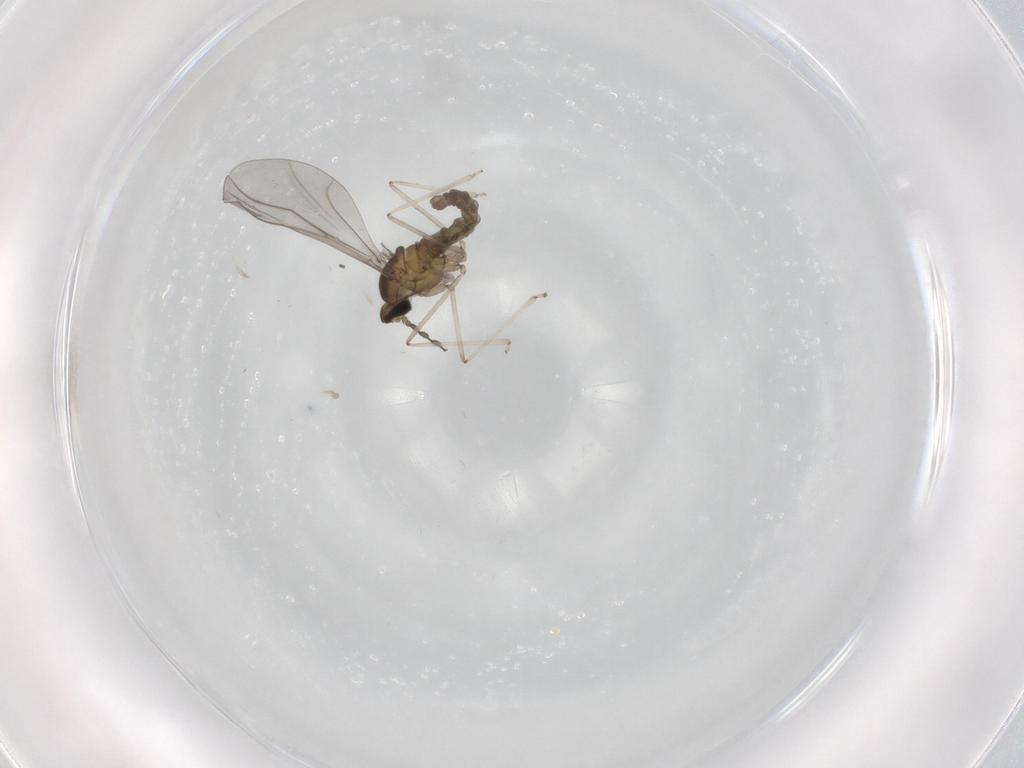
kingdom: Animalia
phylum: Arthropoda
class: Insecta
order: Diptera
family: Cecidomyiidae
